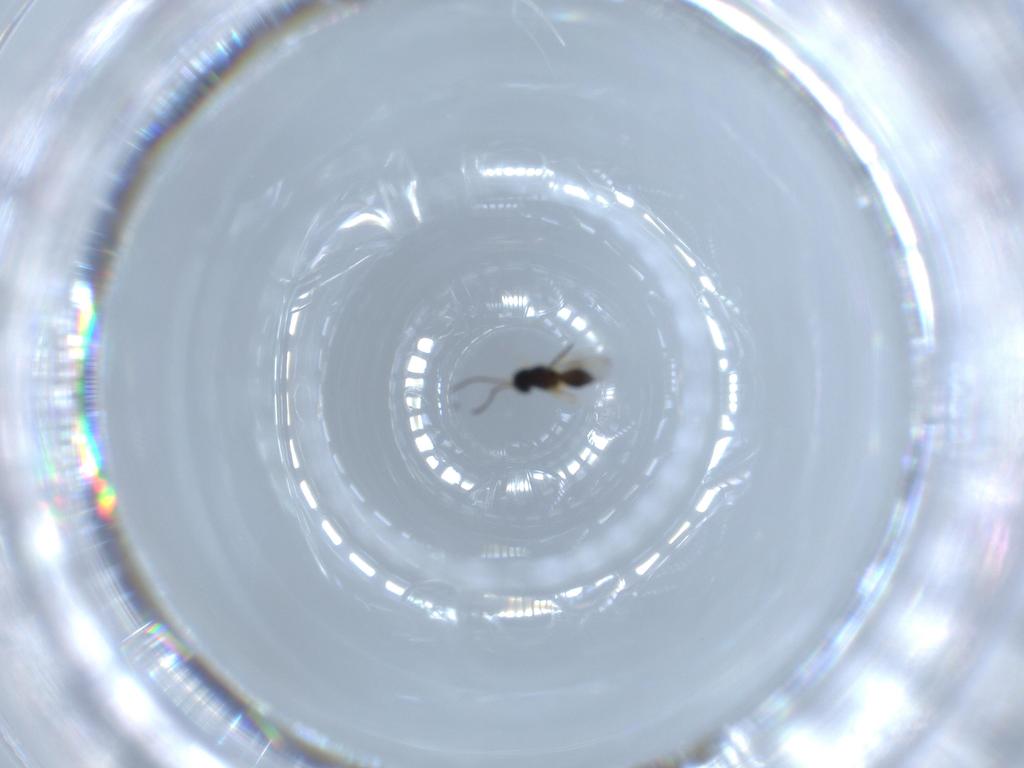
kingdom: Animalia
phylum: Arthropoda
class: Insecta
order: Hymenoptera
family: Scelionidae
